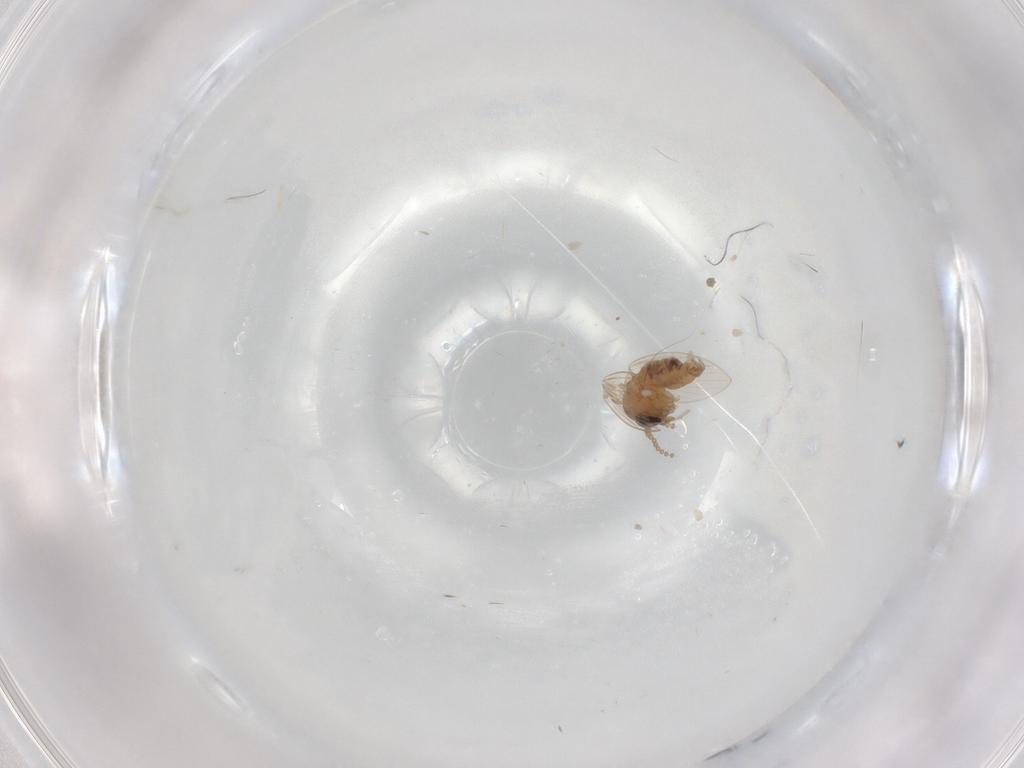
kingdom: Animalia
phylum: Arthropoda
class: Insecta
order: Diptera
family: Psychodidae
